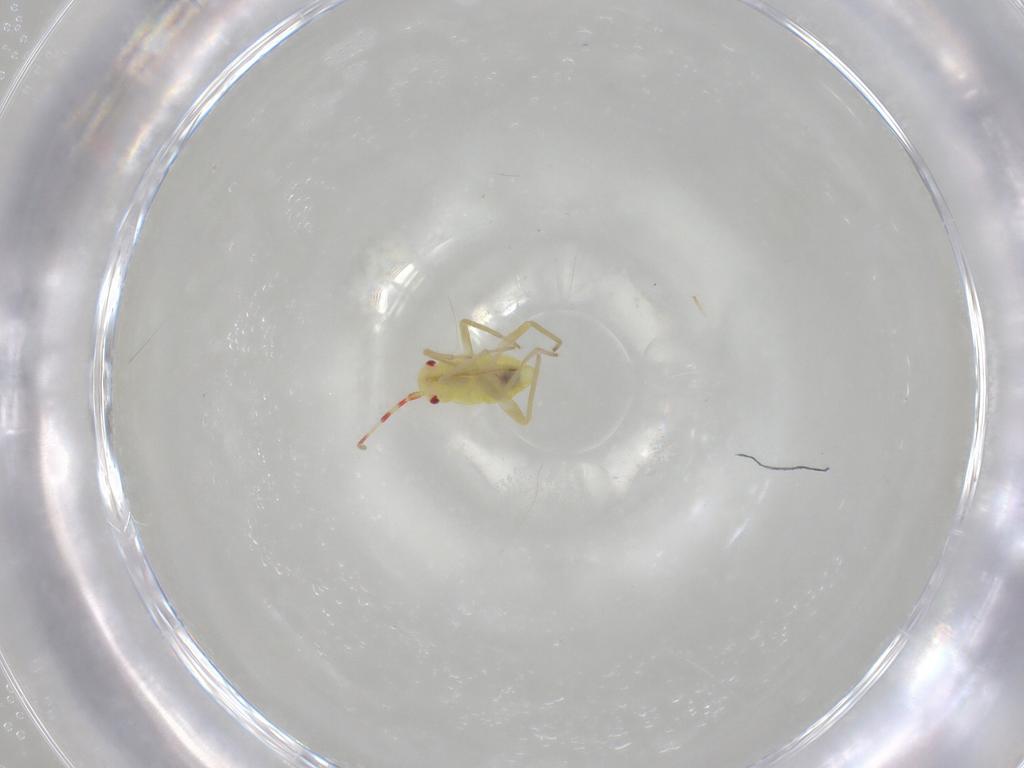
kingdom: Animalia
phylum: Arthropoda
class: Insecta
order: Hemiptera
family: Miridae
